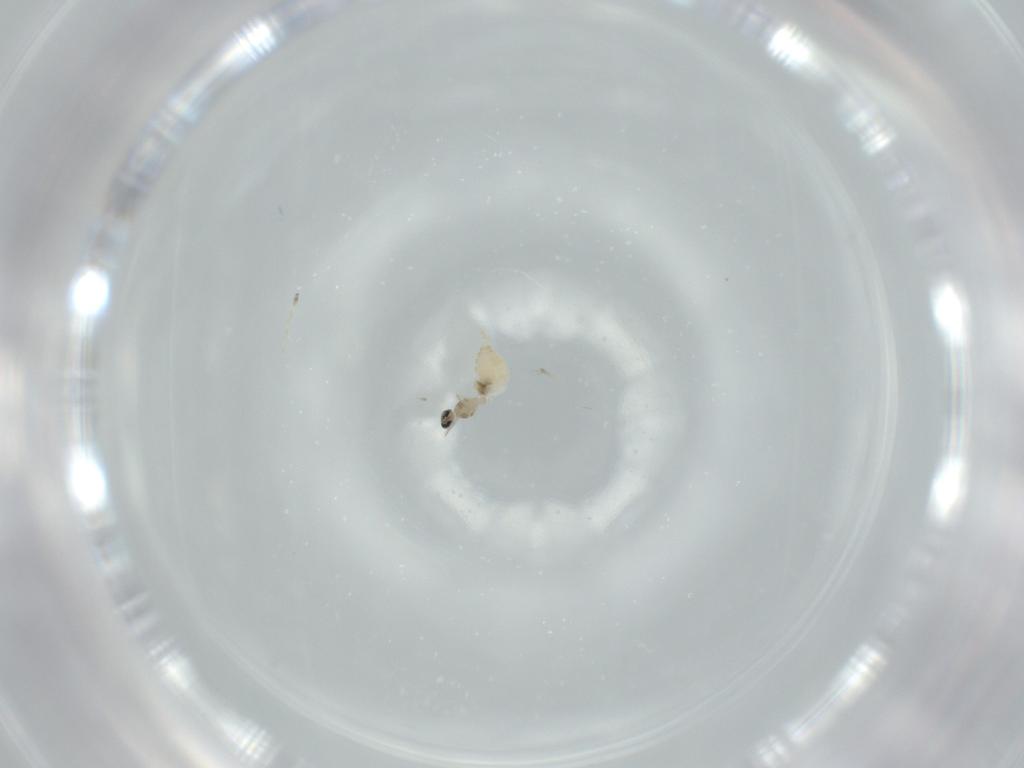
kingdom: Animalia
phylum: Arthropoda
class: Insecta
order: Diptera
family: Cecidomyiidae
